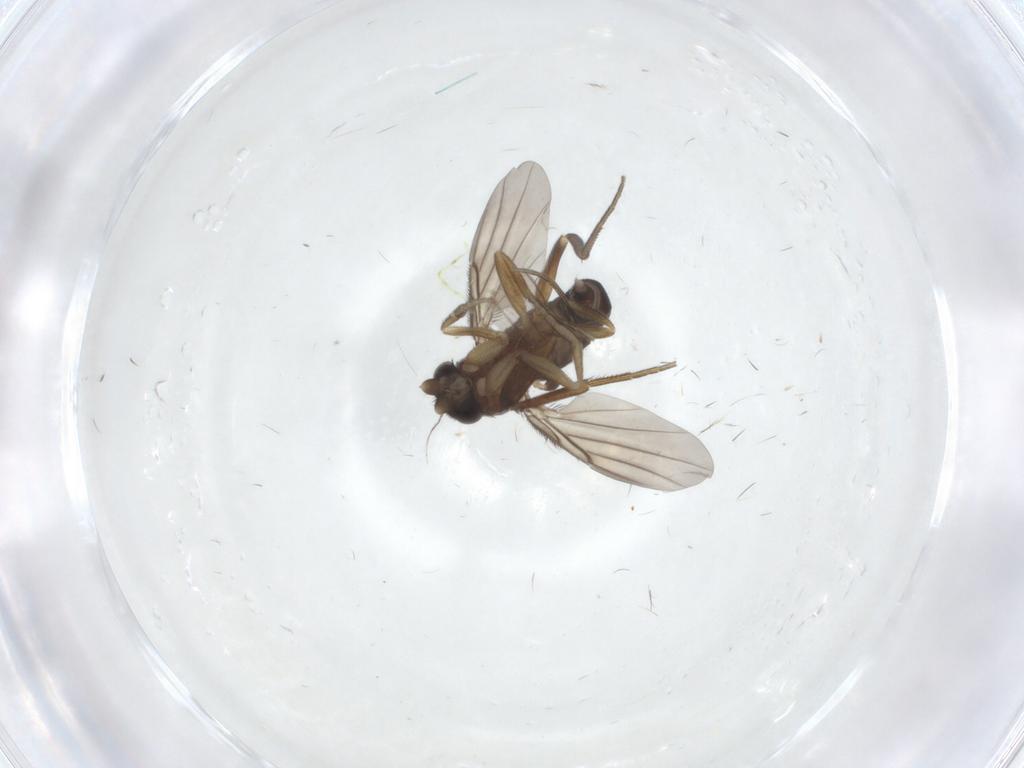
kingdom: Animalia
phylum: Arthropoda
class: Insecta
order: Diptera
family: Phoridae
